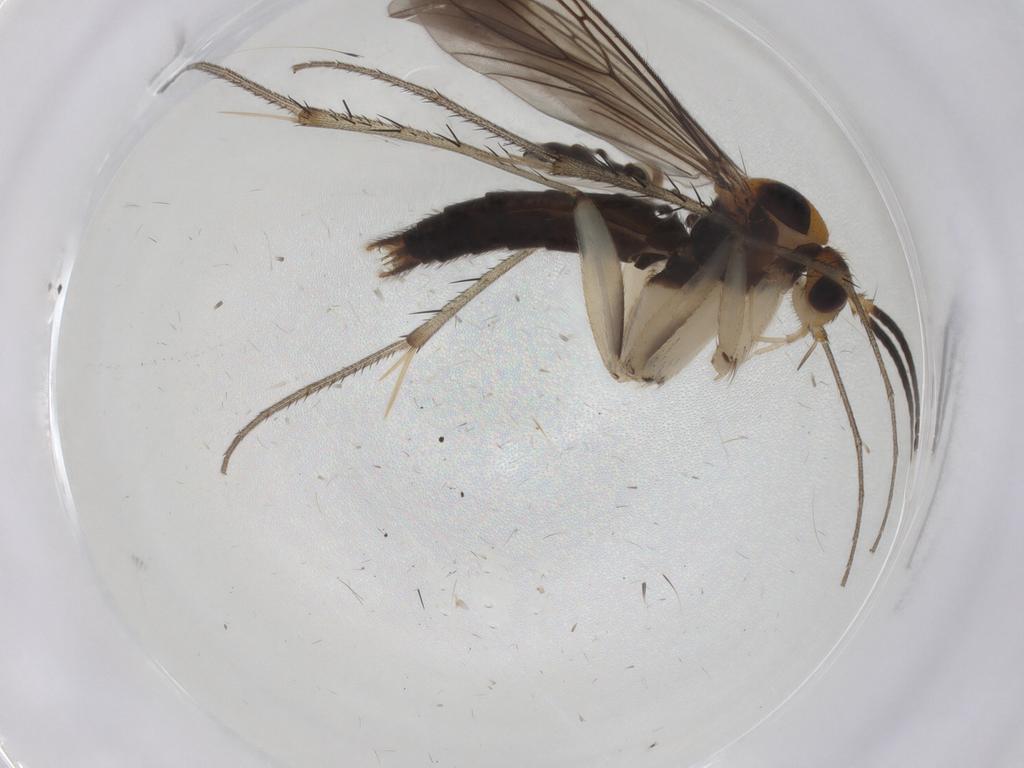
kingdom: Animalia
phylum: Arthropoda
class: Insecta
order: Diptera
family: Mycetophilidae
